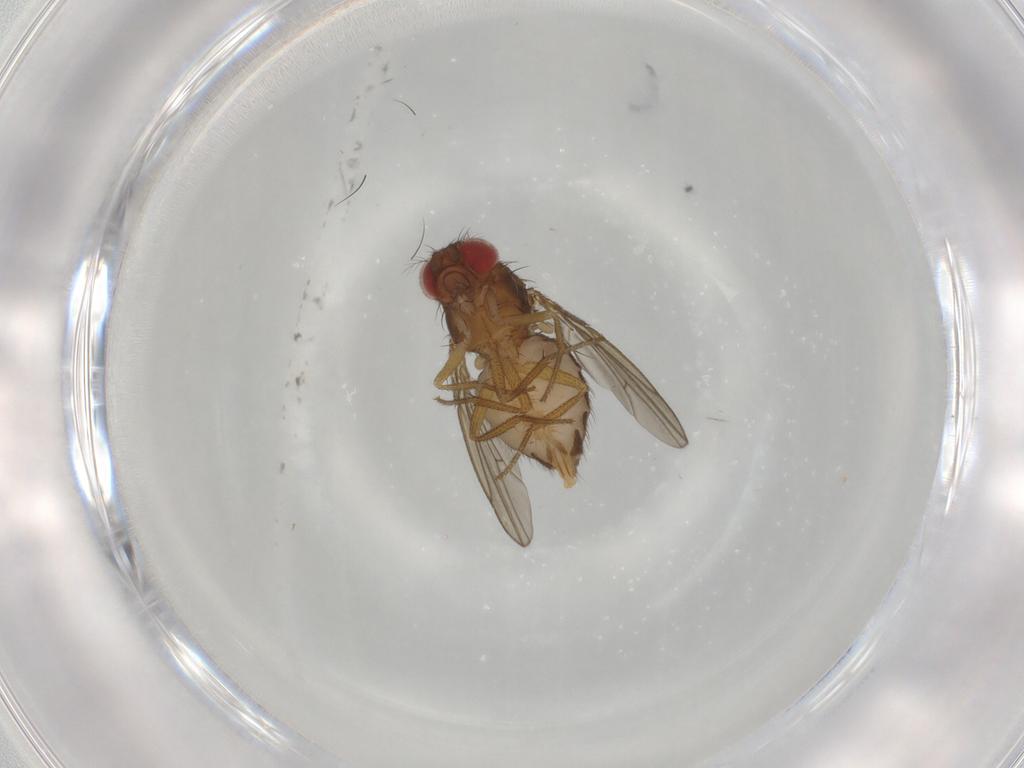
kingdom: Animalia
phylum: Arthropoda
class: Insecta
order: Diptera
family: Drosophilidae
